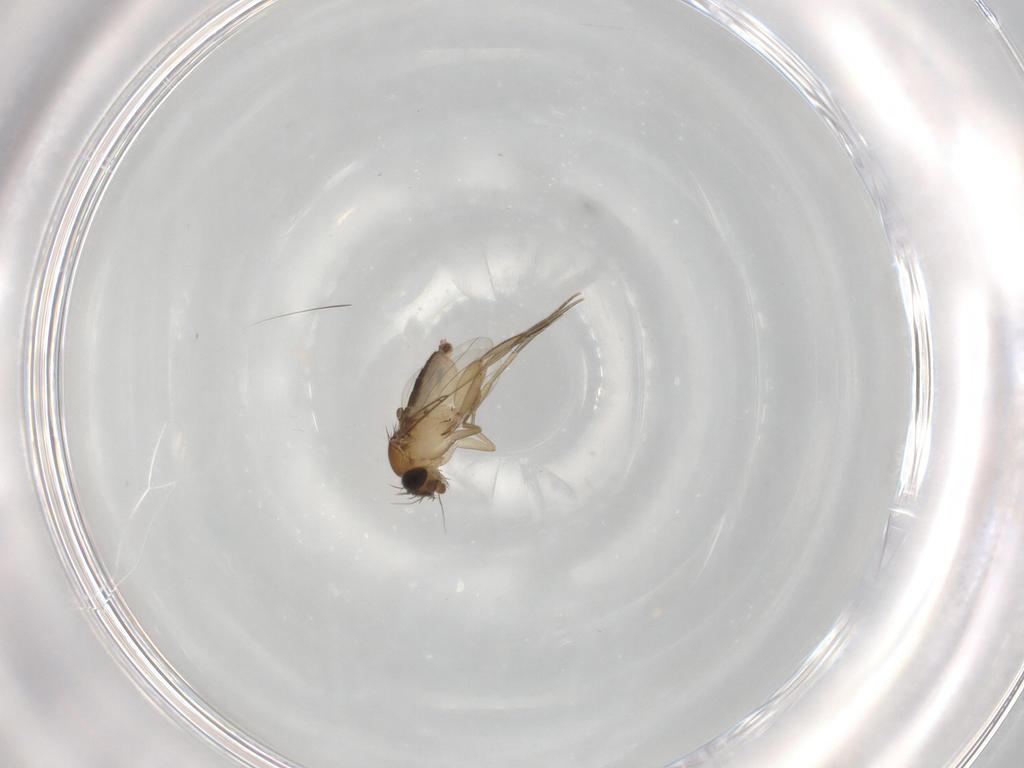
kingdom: Animalia
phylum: Arthropoda
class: Insecta
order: Diptera
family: Phoridae
